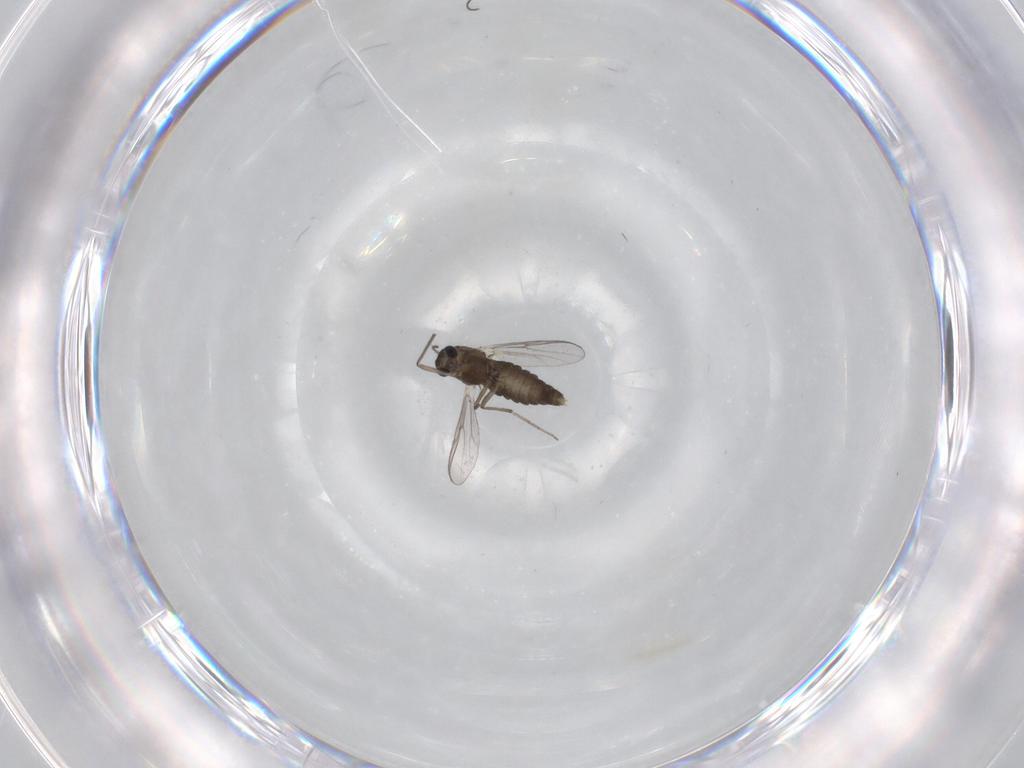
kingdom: Animalia
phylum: Arthropoda
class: Insecta
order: Diptera
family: Chironomidae
